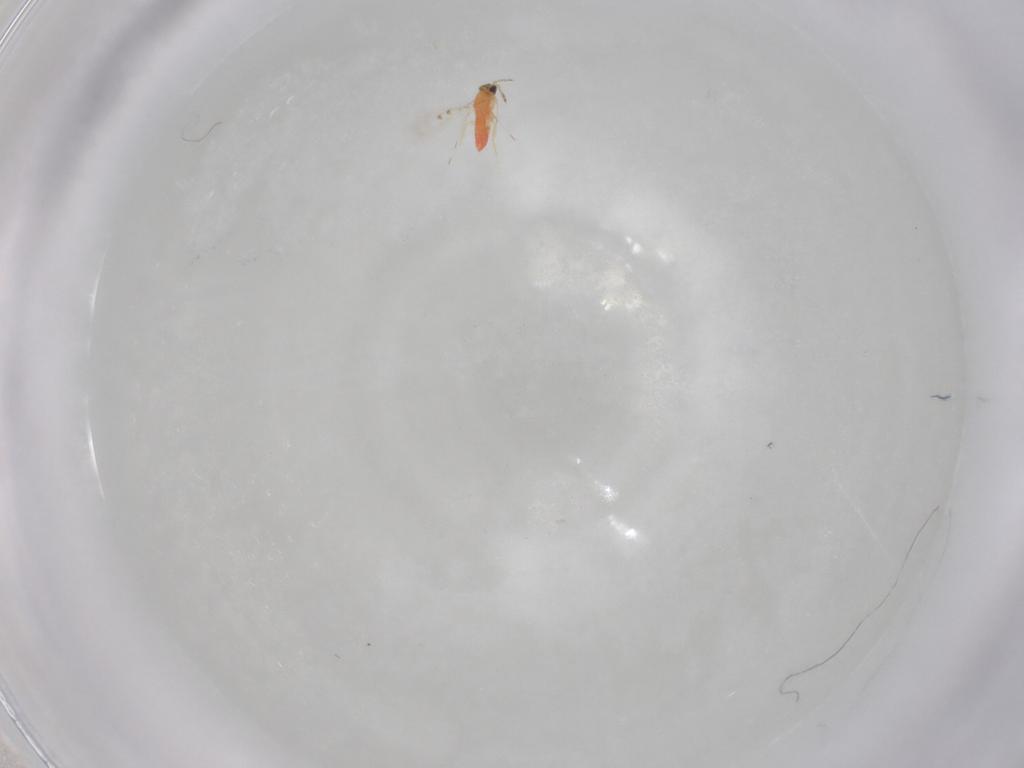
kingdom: Animalia
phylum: Arthropoda
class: Insecta
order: Hymenoptera
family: Trichogrammatidae
